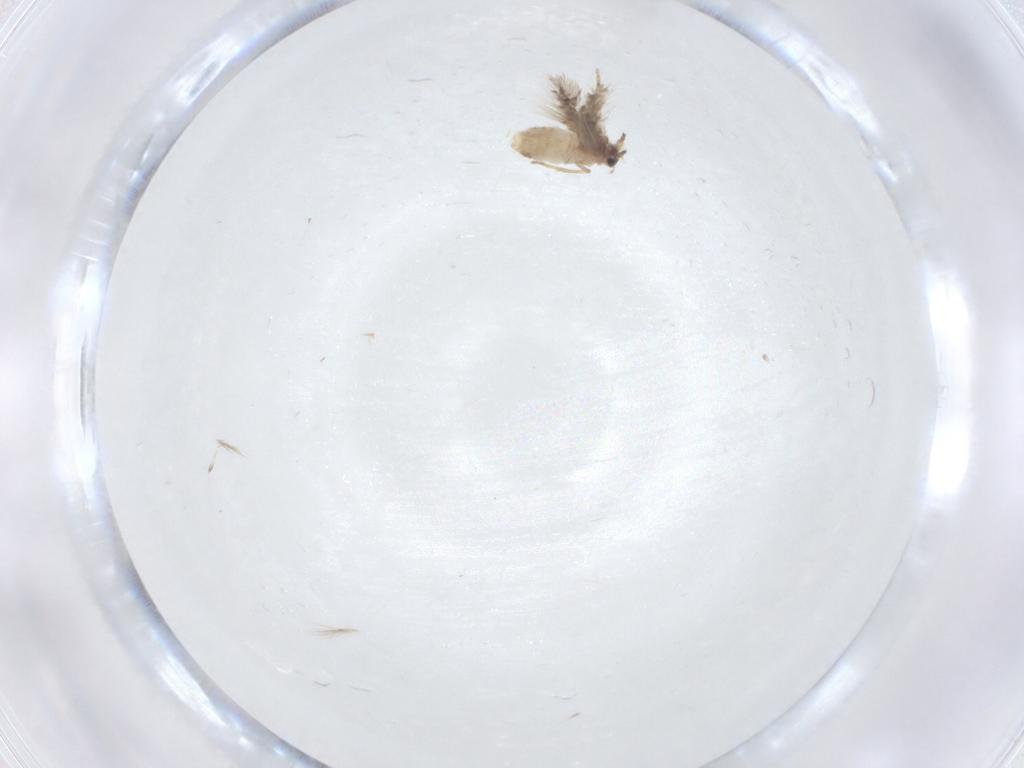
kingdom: Animalia
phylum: Arthropoda
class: Insecta
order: Lepidoptera
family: Nepticulidae
